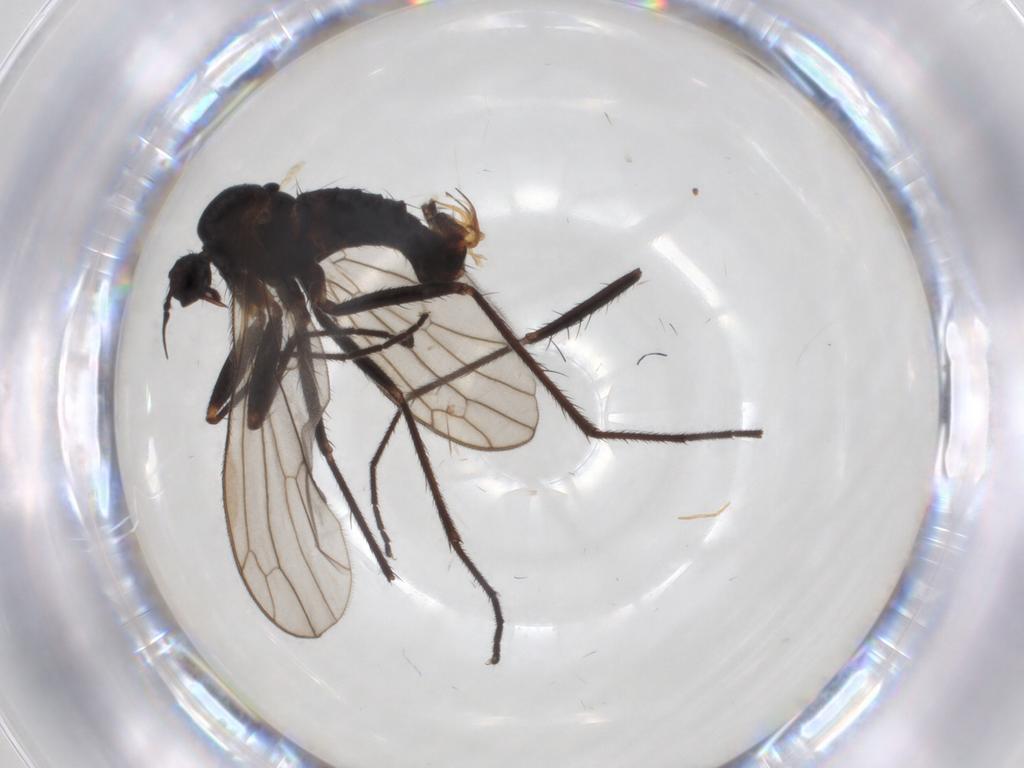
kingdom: Animalia
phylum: Arthropoda
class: Insecta
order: Diptera
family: Empididae
